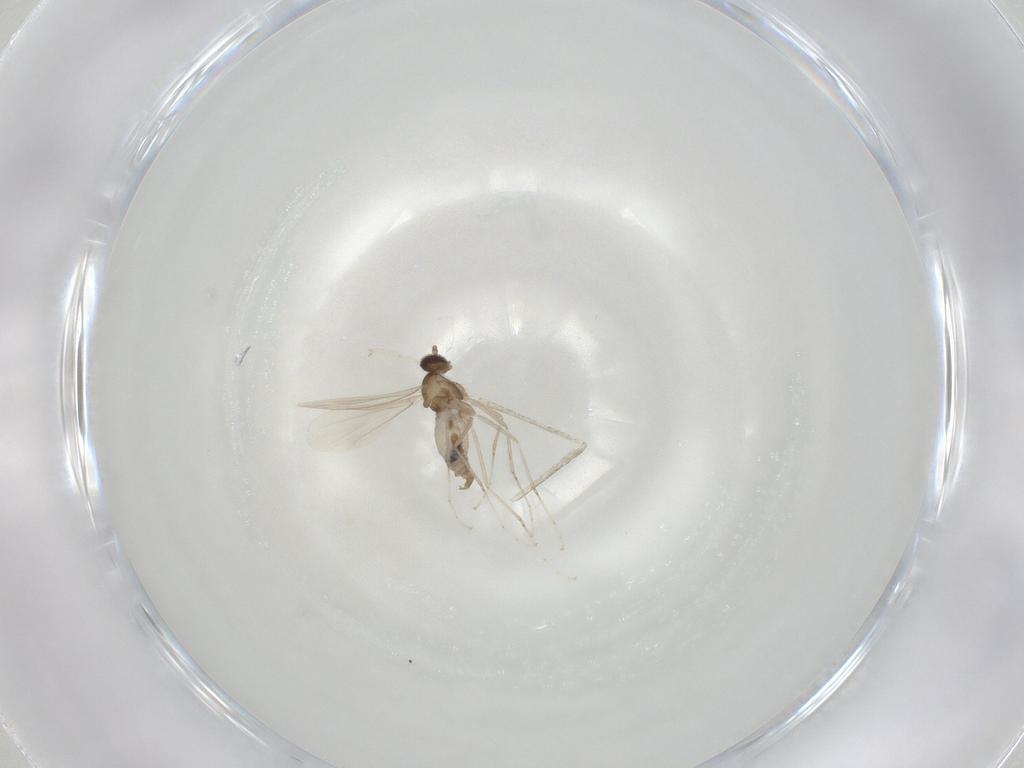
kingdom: Animalia
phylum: Arthropoda
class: Insecta
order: Diptera
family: Cecidomyiidae
